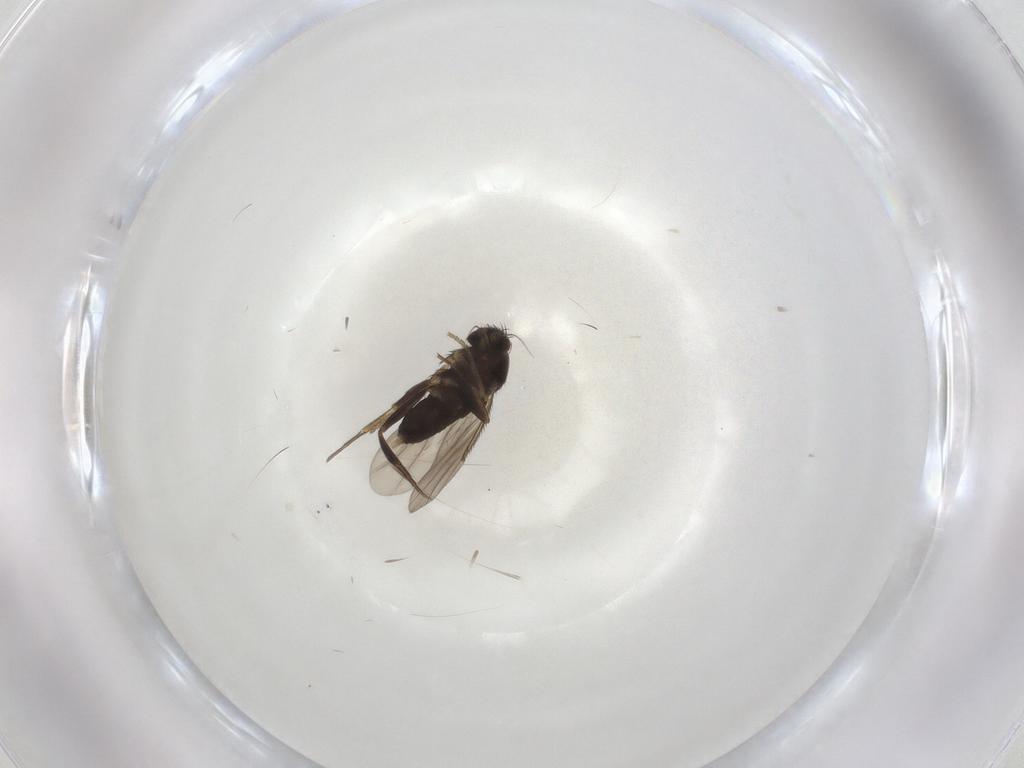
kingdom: Animalia
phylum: Arthropoda
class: Insecta
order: Diptera
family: Phoridae
